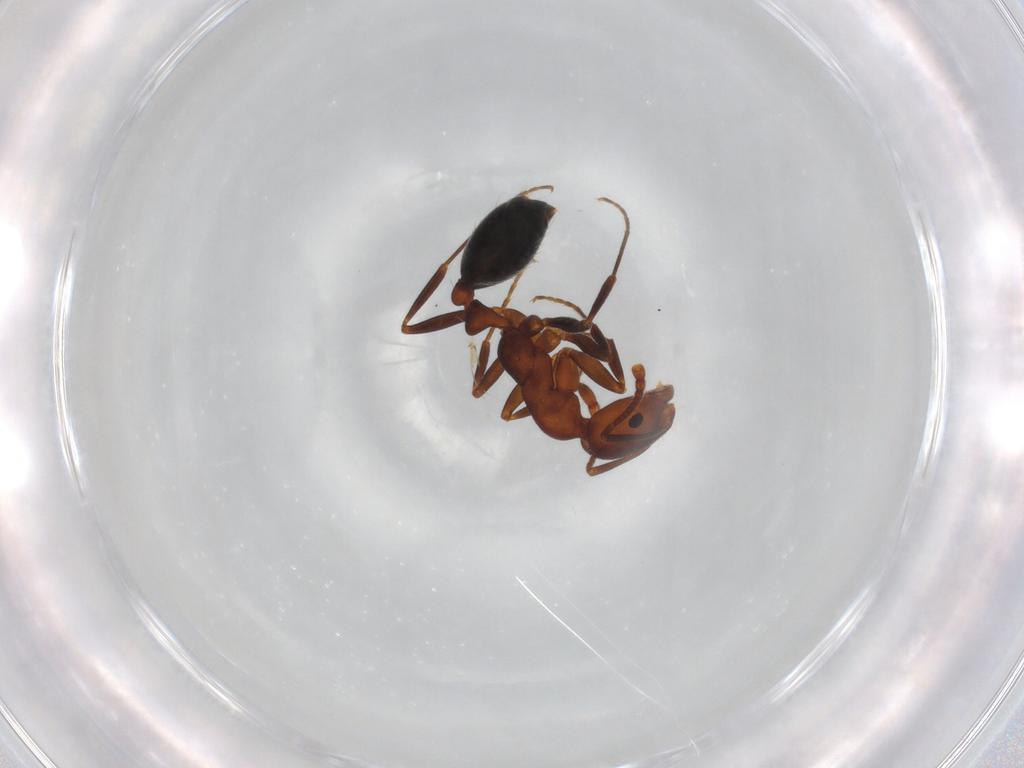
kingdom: Animalia
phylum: Arthropoda
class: Insecta
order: Hymenoptera
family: Formicidae
